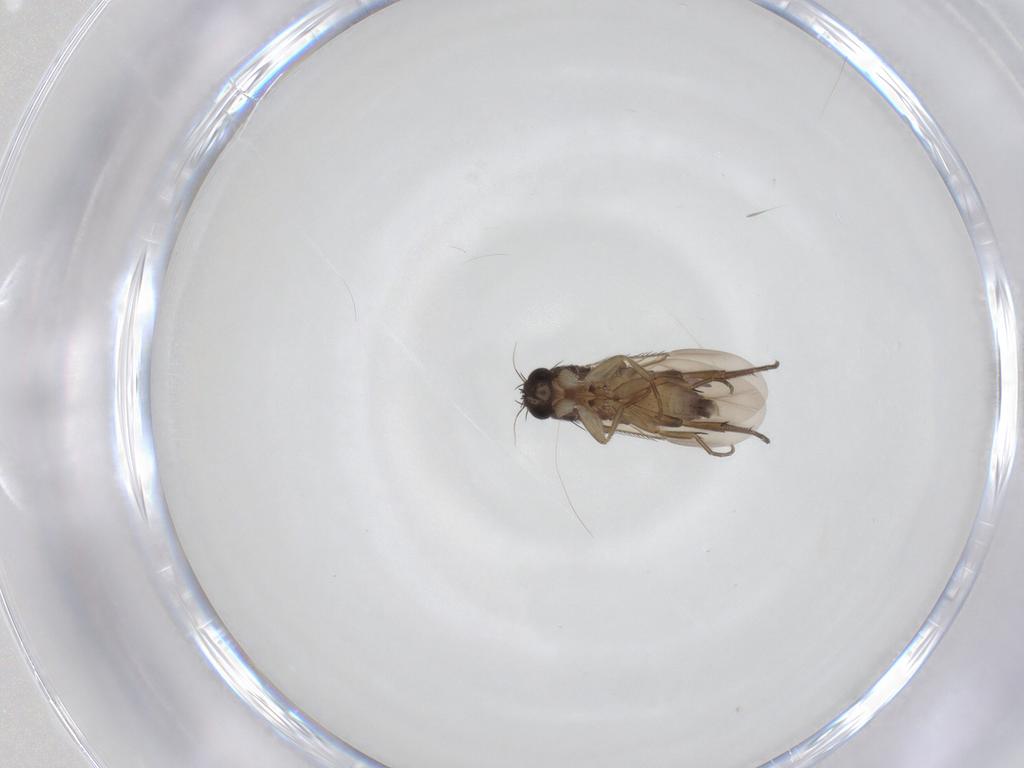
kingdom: Animalia
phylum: Arthropoda
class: Insecta
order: Diptera
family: Phoridae
